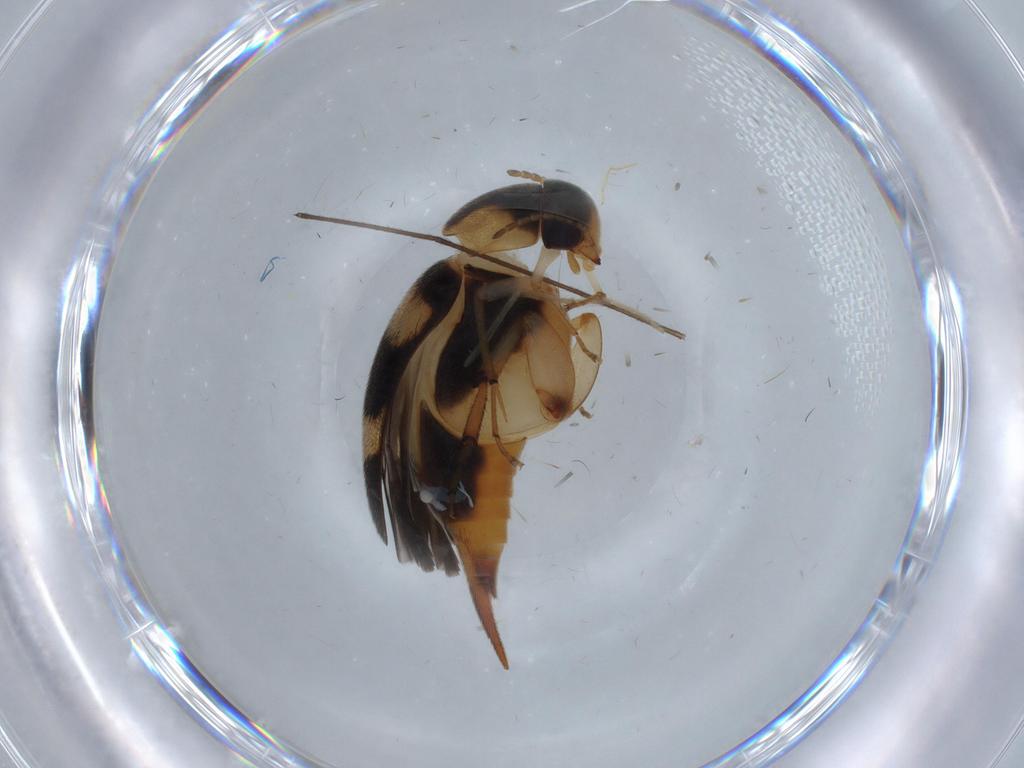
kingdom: Animalia
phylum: Arthropoda
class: Insecta
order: Coleoptera
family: Mordellidae
